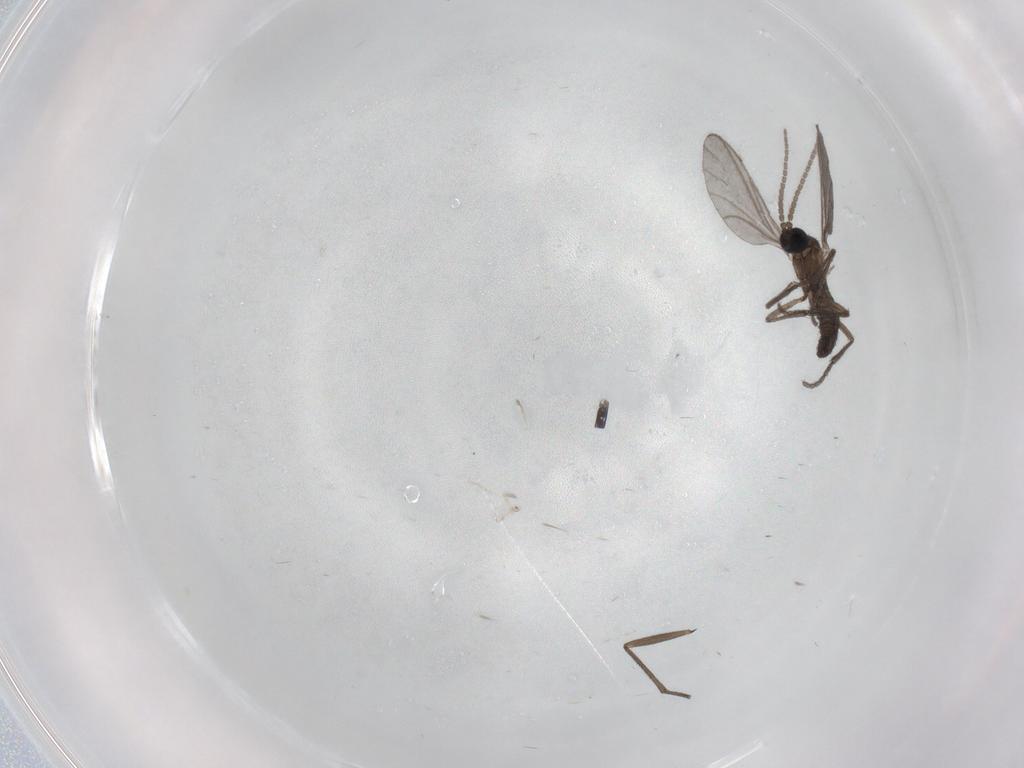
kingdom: Animalia
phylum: Arthropoda
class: Insecta
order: Diptera
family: Sciaridae
